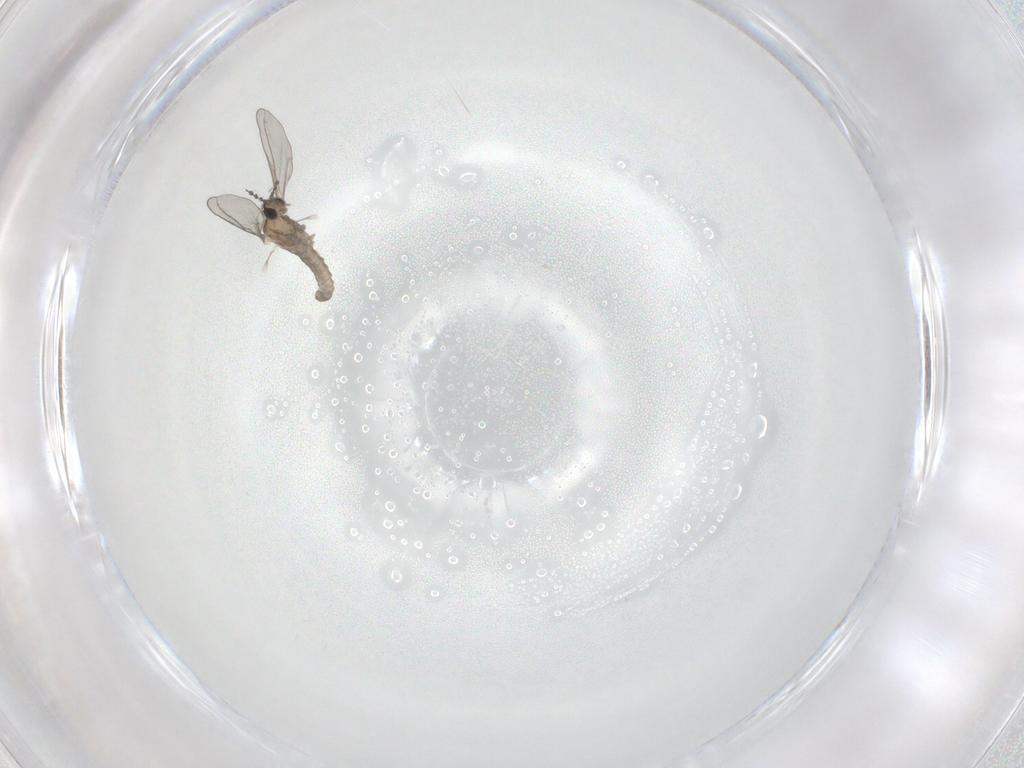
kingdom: Animalia
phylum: Arthropoda
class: Insecta
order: Diptera
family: Cecidomyiidae
